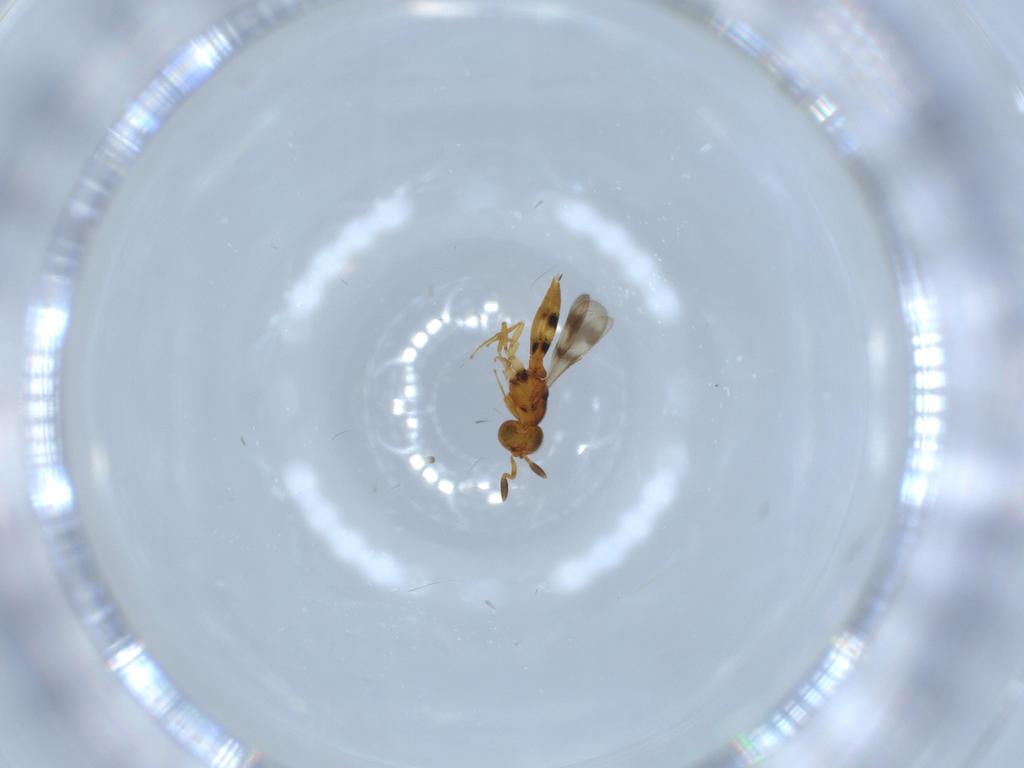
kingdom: Animalia
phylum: Arthropoda
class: Insecta
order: Hymenoptera
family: Scelionidae
